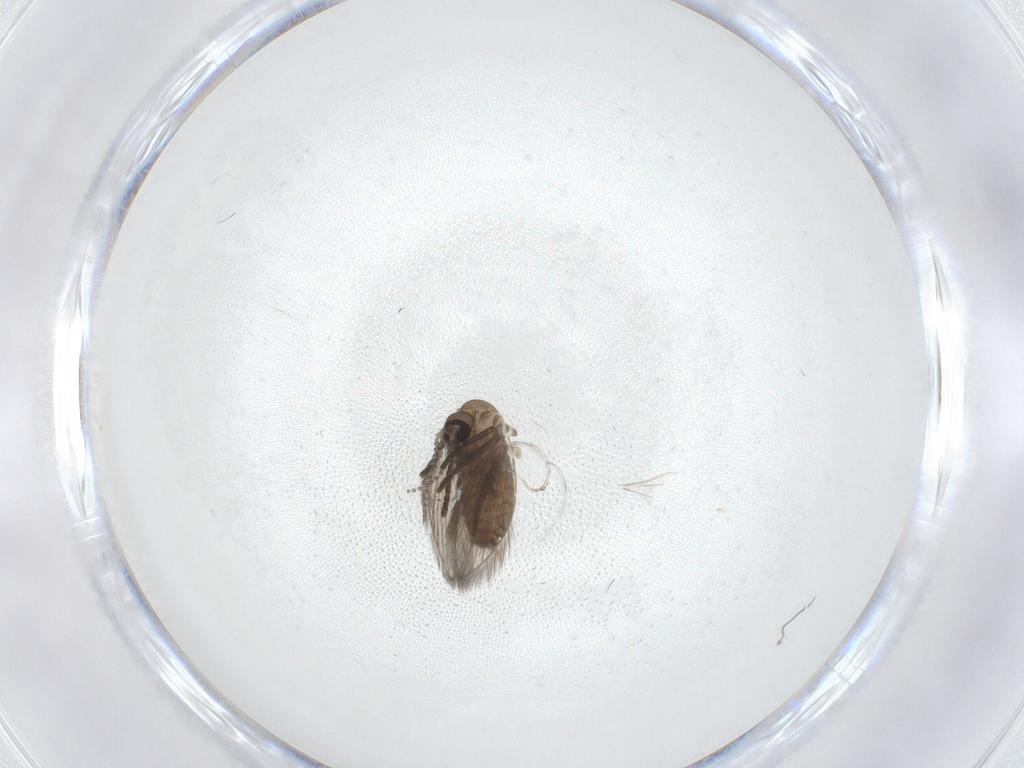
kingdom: Animalia
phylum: Arthropoda
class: Insecta
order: Diptera
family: Psychodidae
